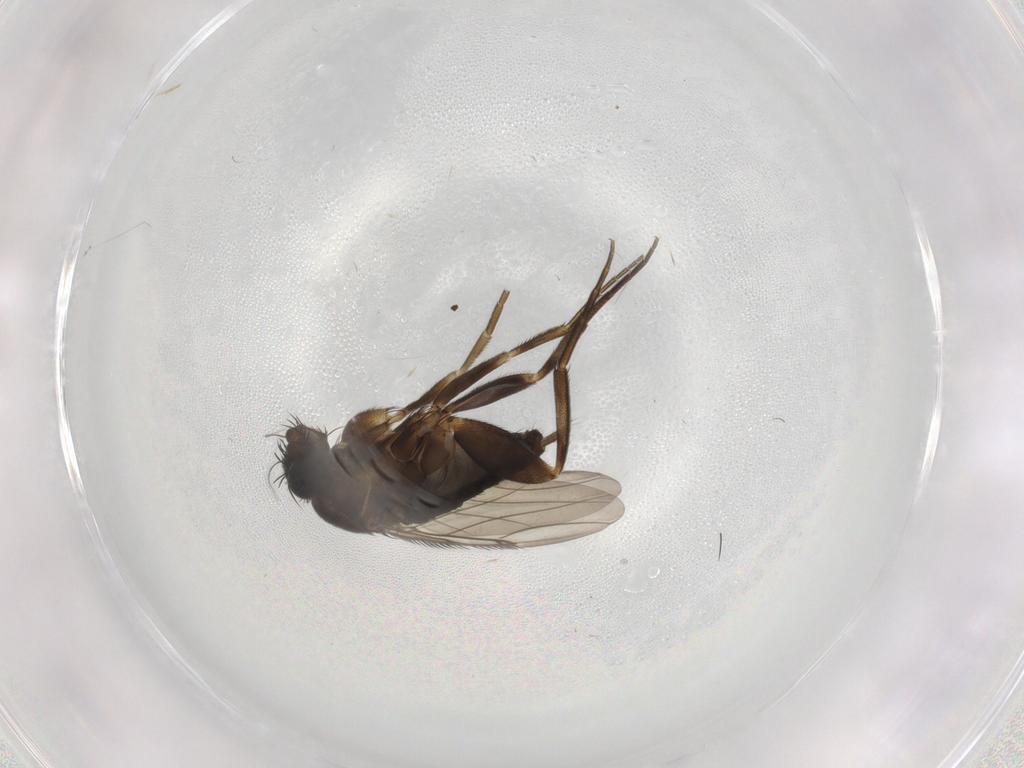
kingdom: Animalia
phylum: Arthropoda
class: Insecta
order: Diptera
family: Phoridae
